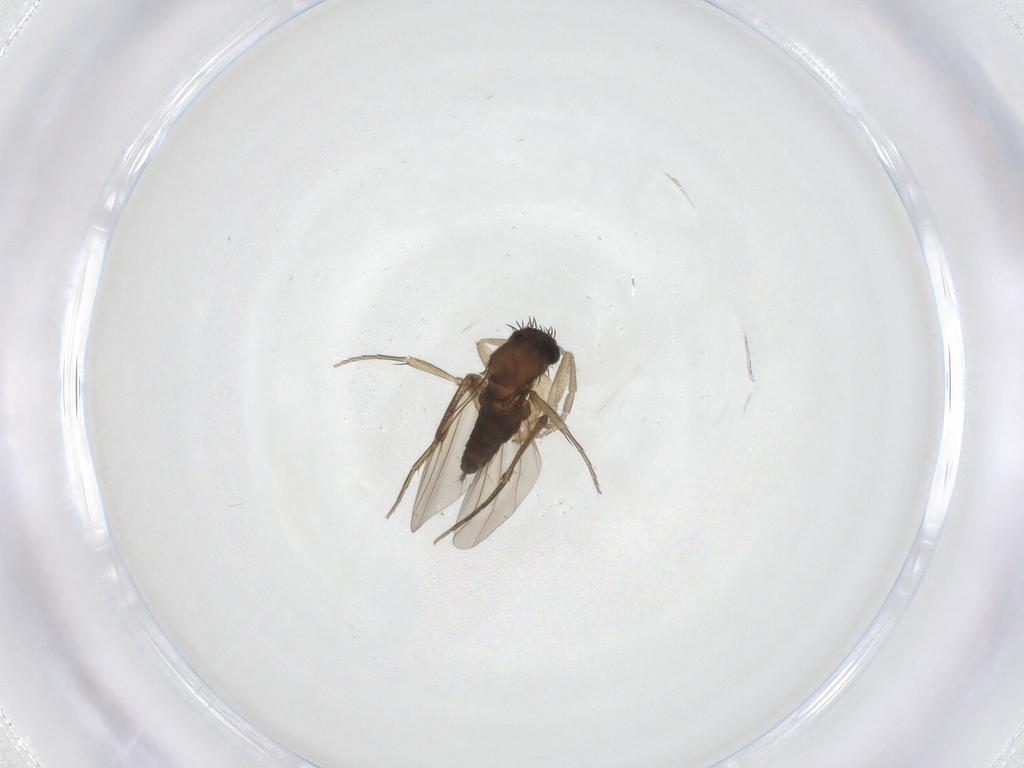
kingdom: Animalia
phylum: Arthropoda
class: Insecta
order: Diptera
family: Phoridae
